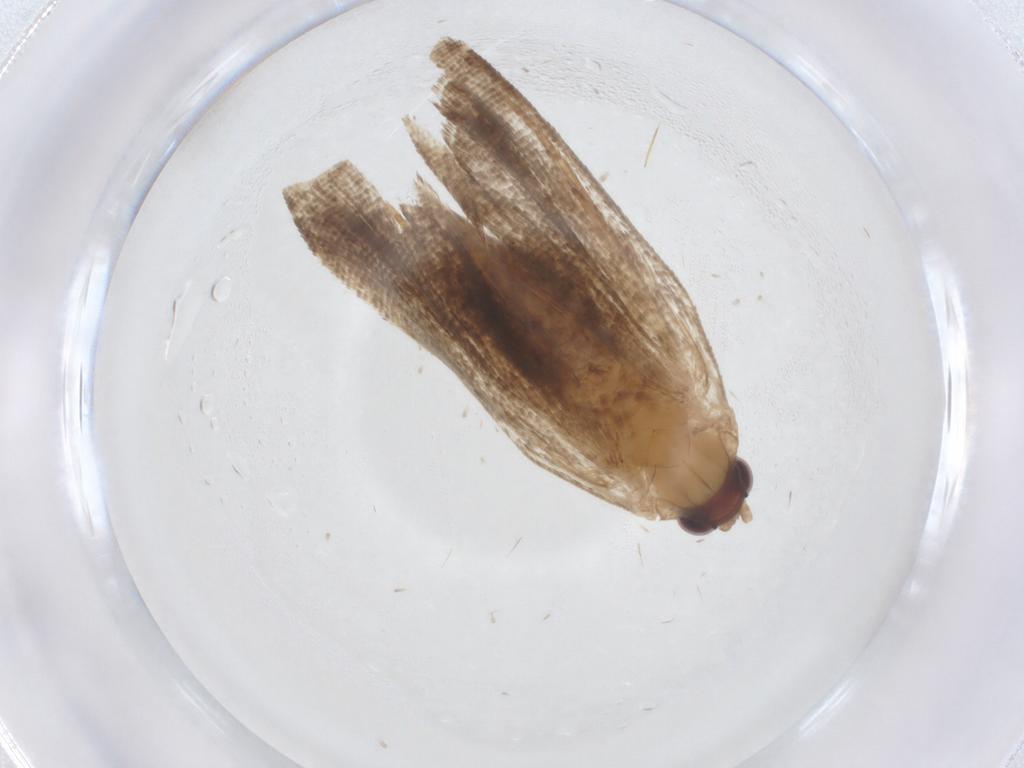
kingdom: Animalia
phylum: Arthropoda
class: Insecta
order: Lepidoptera
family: Tortricidae
